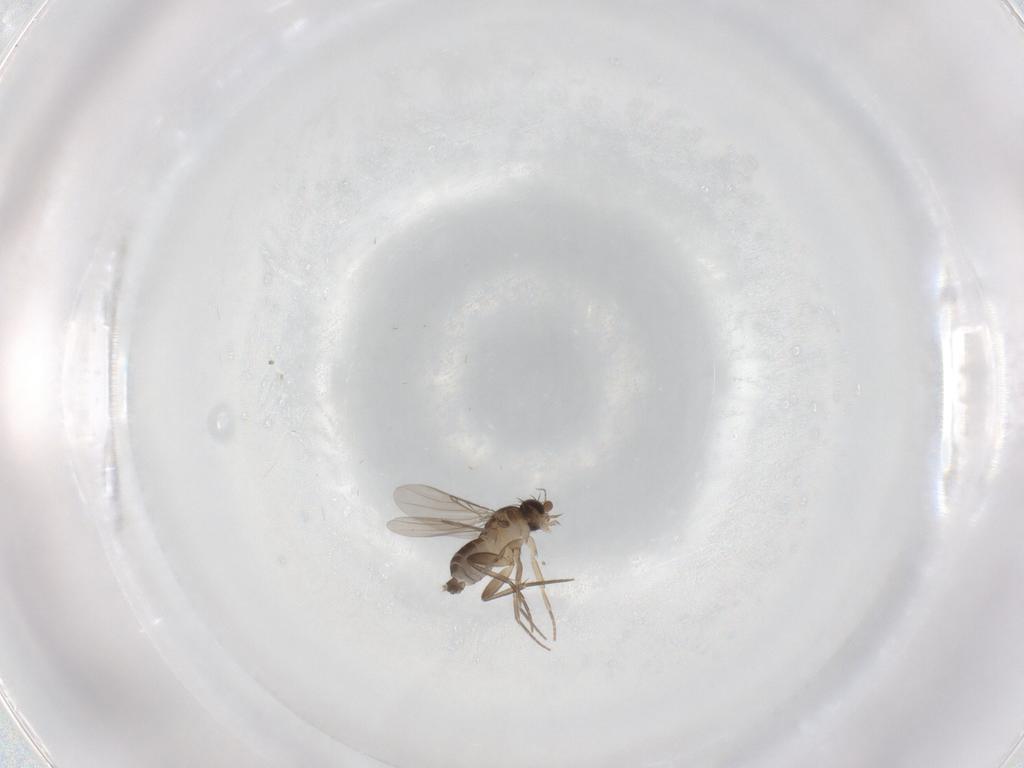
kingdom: Animalia
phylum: Arthropoda
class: Insecta
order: Diptera
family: Phoridae
